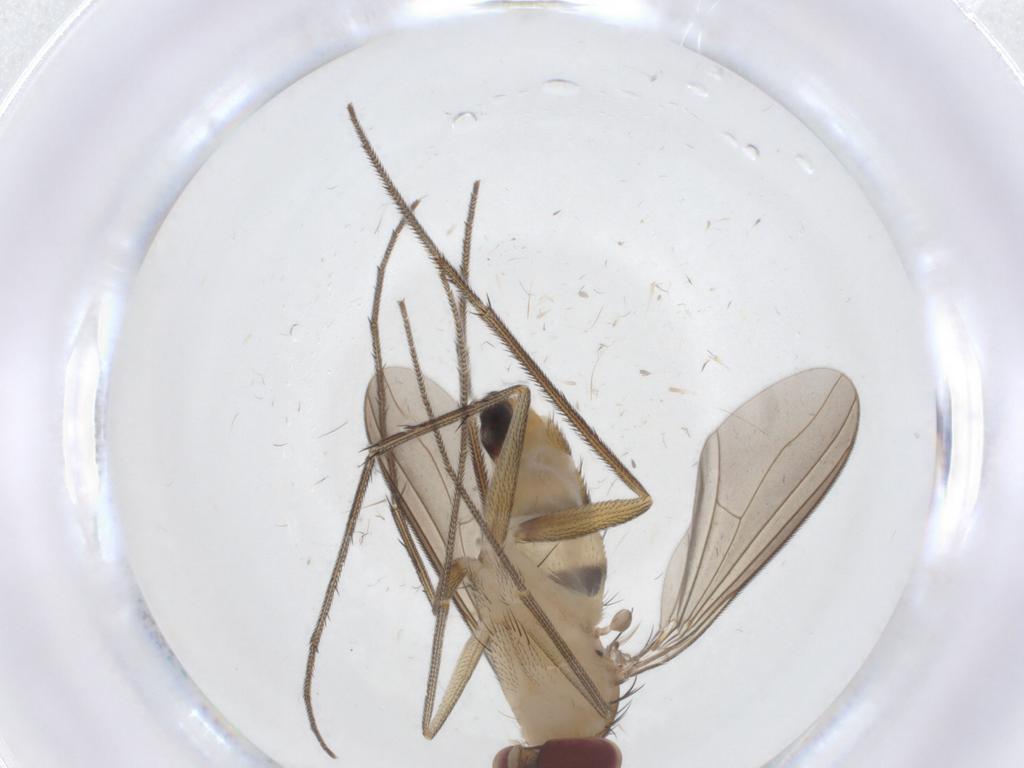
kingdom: Animalia
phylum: Arthropoda
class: Insecta
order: Diptera
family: Dolichopodidae
